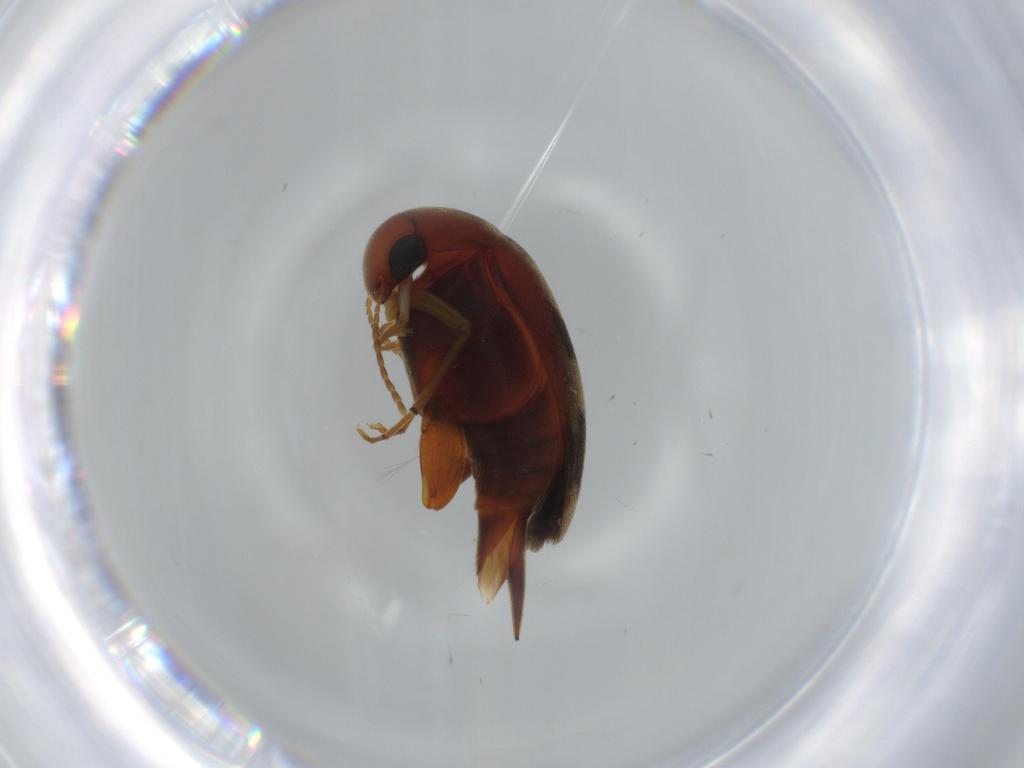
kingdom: Animalia
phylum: Arthropoda
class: Insecta
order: Coleoptera
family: Mordellidae
